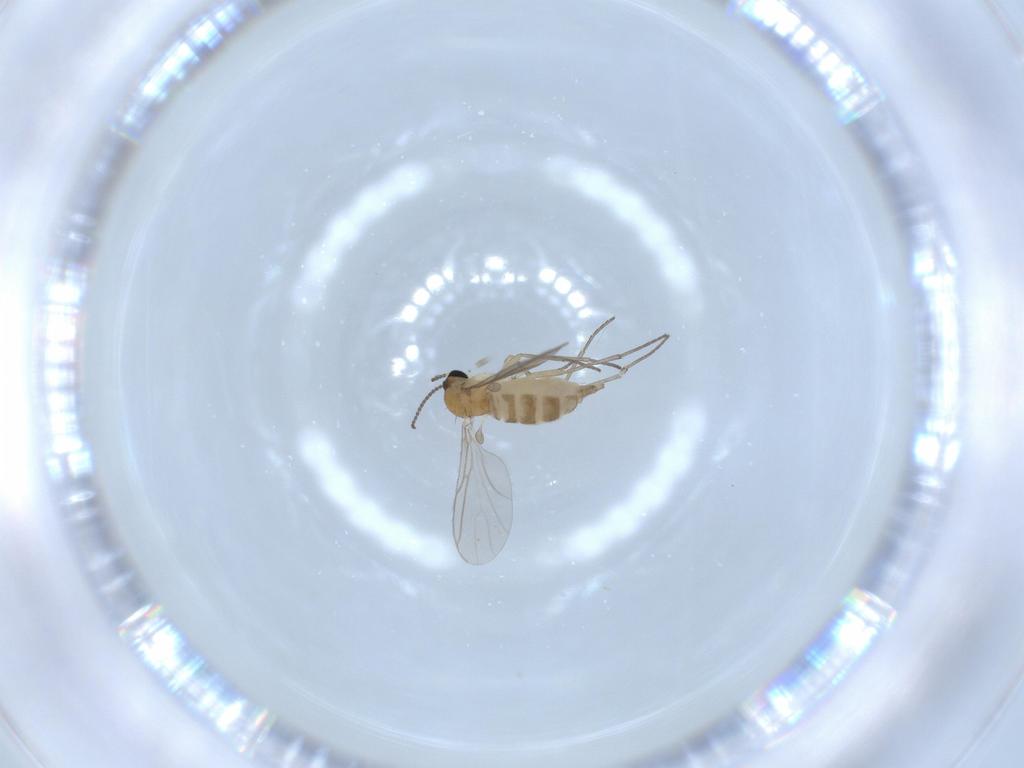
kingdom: Animalia
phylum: Arthropoda
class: Insecta
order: Diptera
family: Sciaridae
